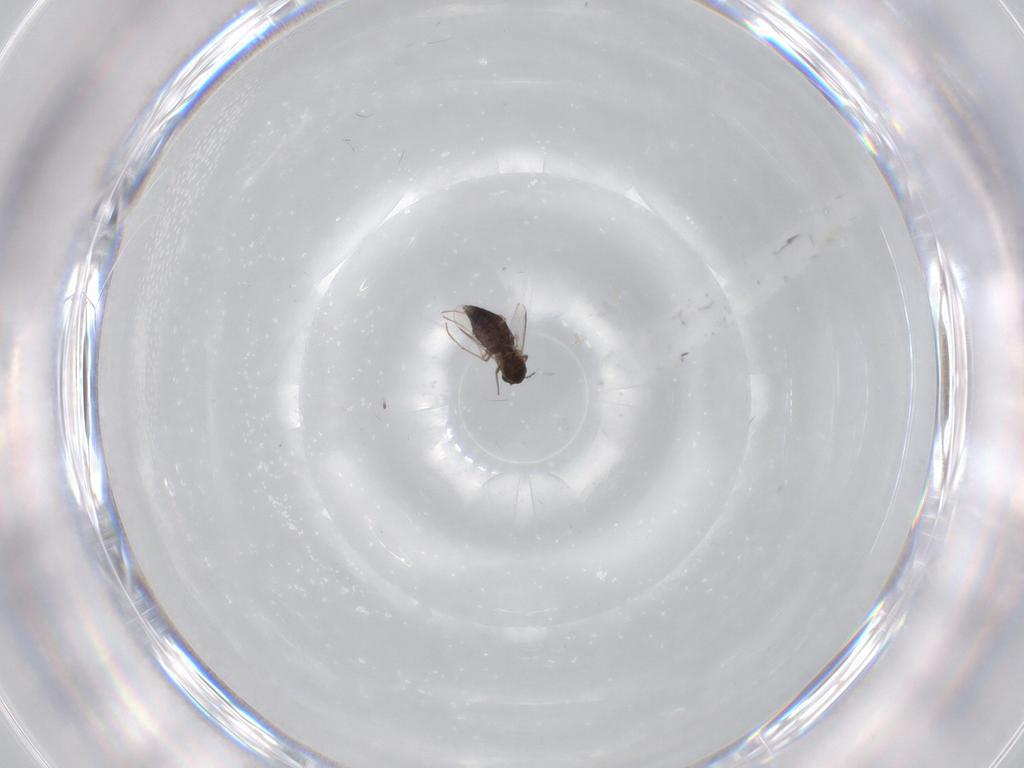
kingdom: Animalia
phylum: Arthropoda
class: Insecta
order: Diptera
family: Chironomidae
